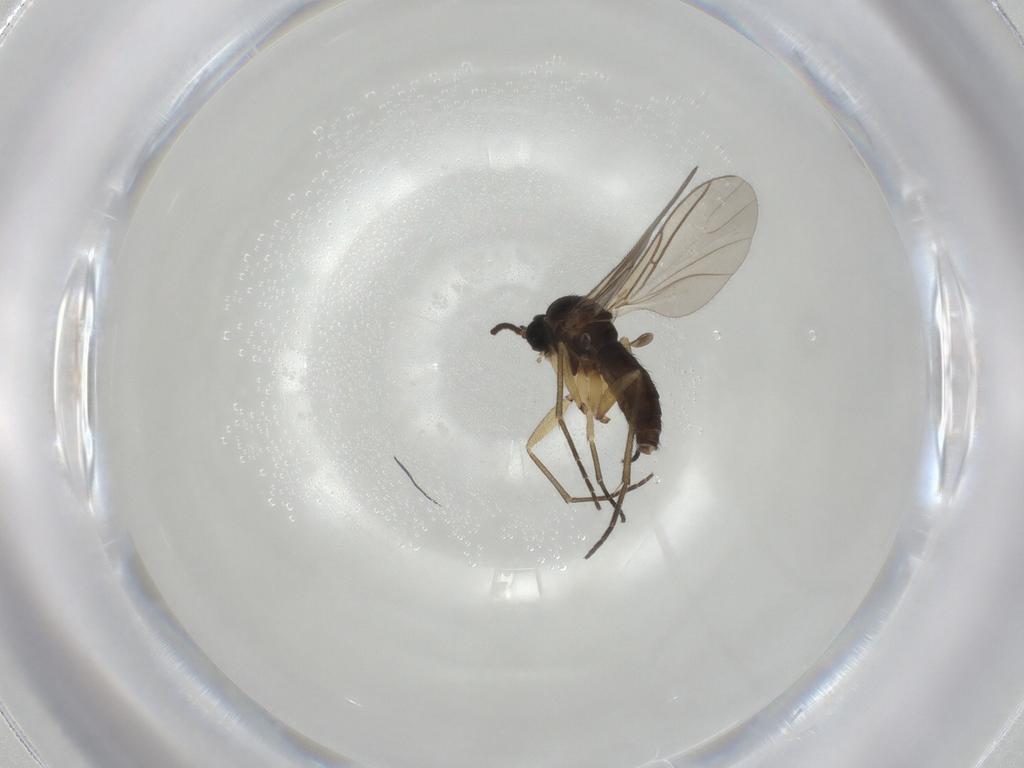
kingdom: Animalia
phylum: Arthropoda
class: Insecta
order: Diptera
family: Sciaridae
